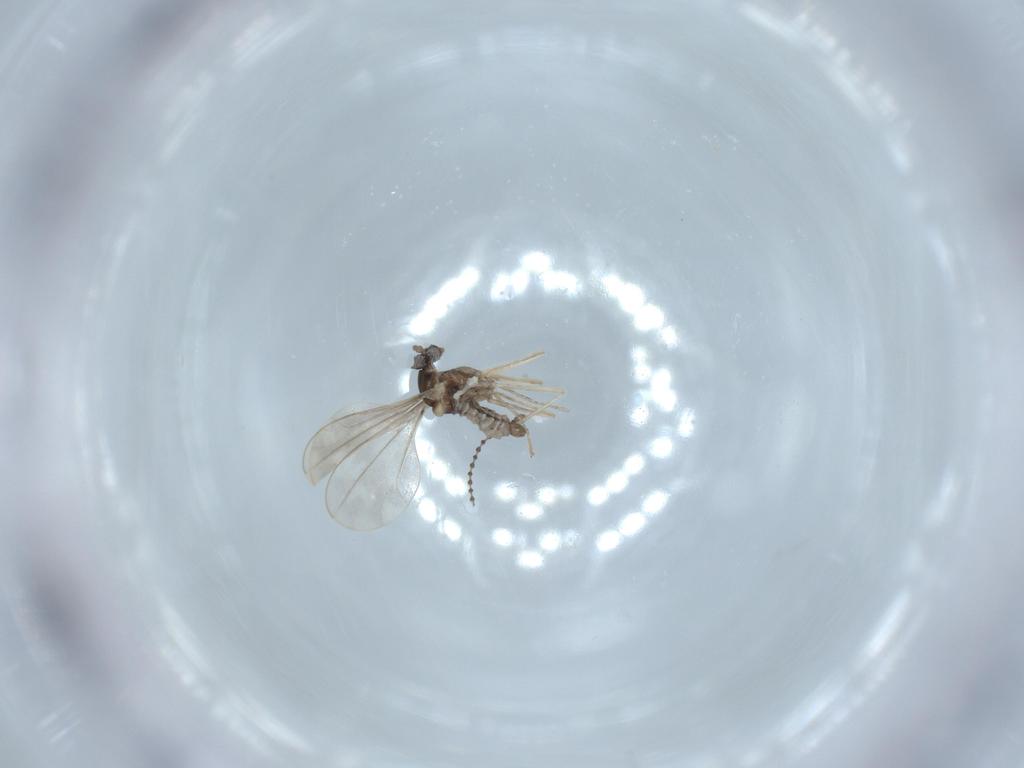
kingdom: Animalia
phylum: Arthropoda
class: Insecta
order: Diptera
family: Cecidomyiidae
